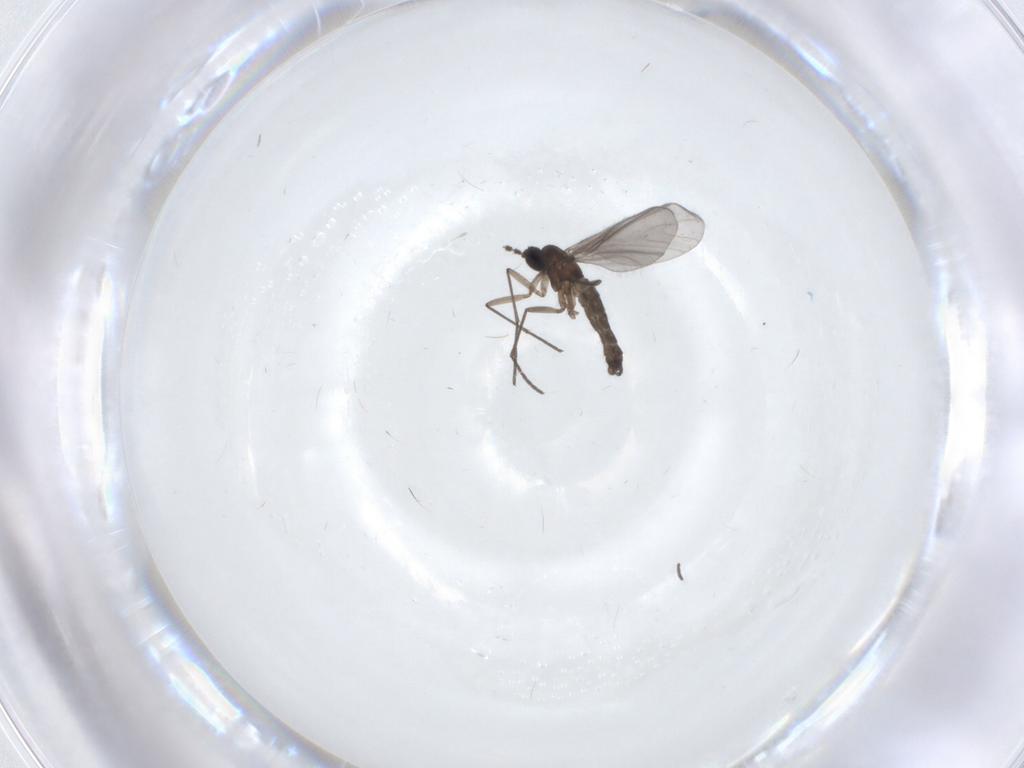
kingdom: Animalia
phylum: Arthropoda
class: Insecta
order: Diptera
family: Sciaridae
